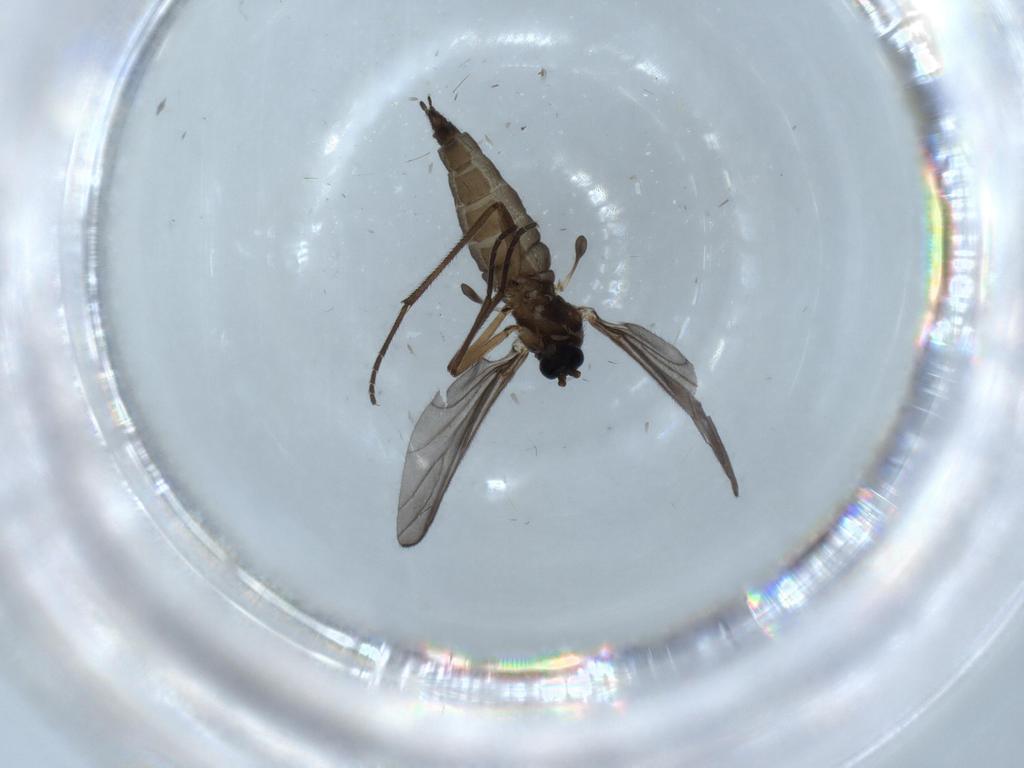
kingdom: Animalia
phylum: Arthropoda
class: Insecta
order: Diptera
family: Sciaridae
